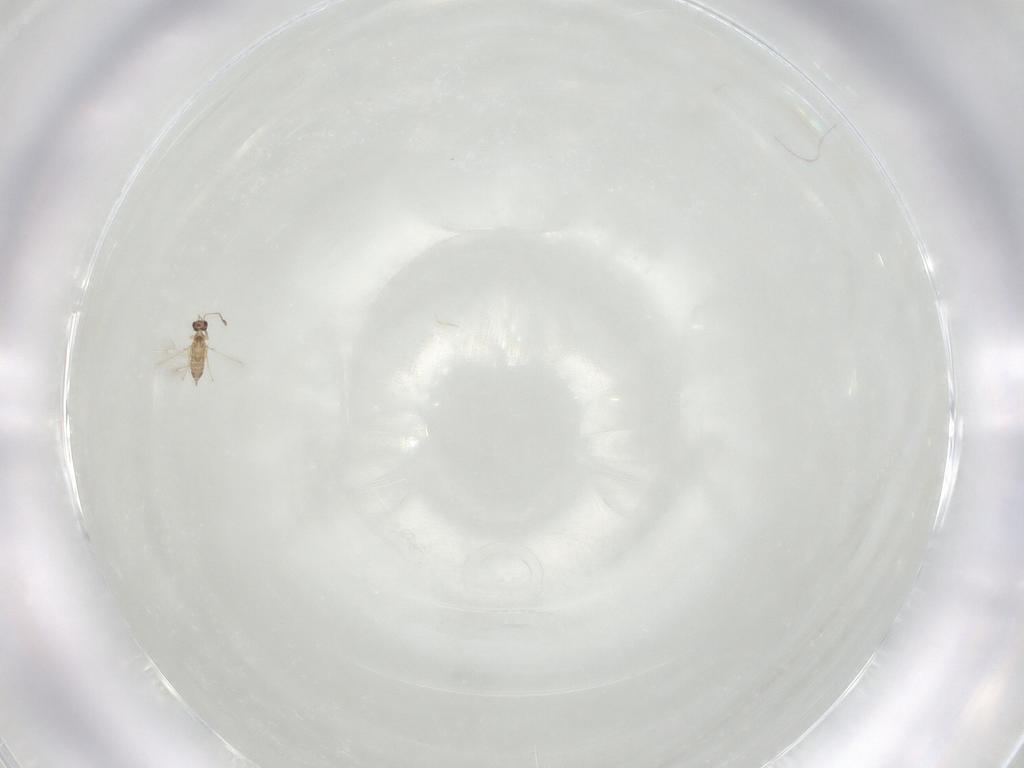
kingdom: Animalia
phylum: Arthropoda
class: Insecta
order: Hymenoptera
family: Mymaridae
